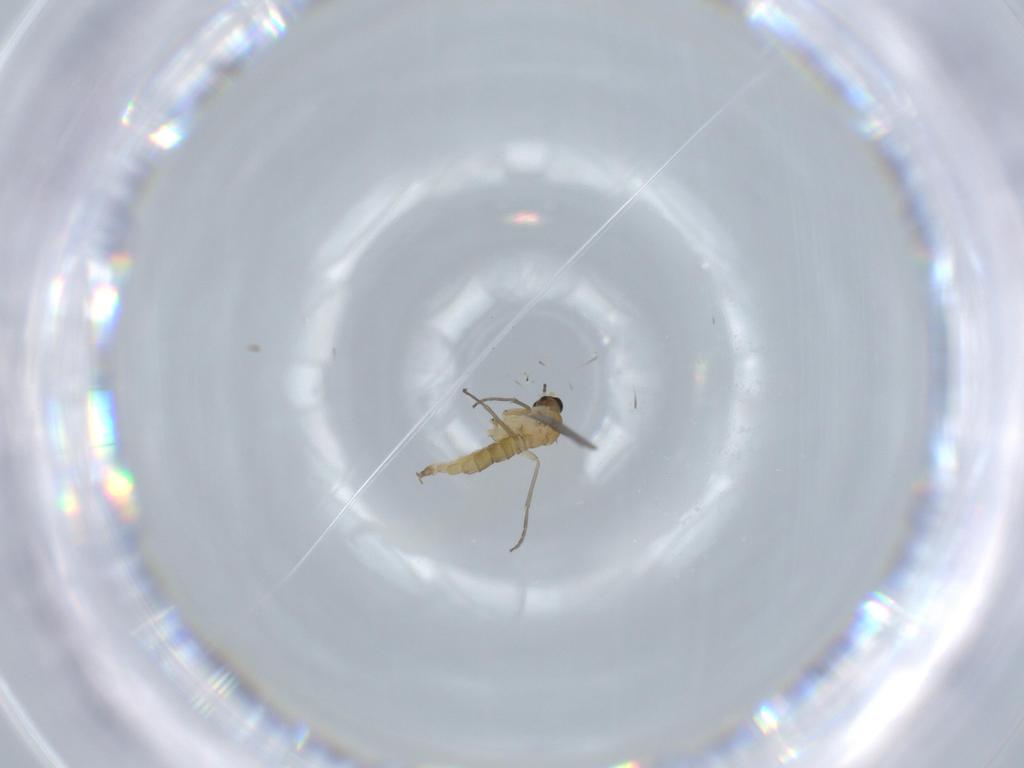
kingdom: Animalia
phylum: Arthropoda
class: Insecta
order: Diptera
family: Sciaridae
